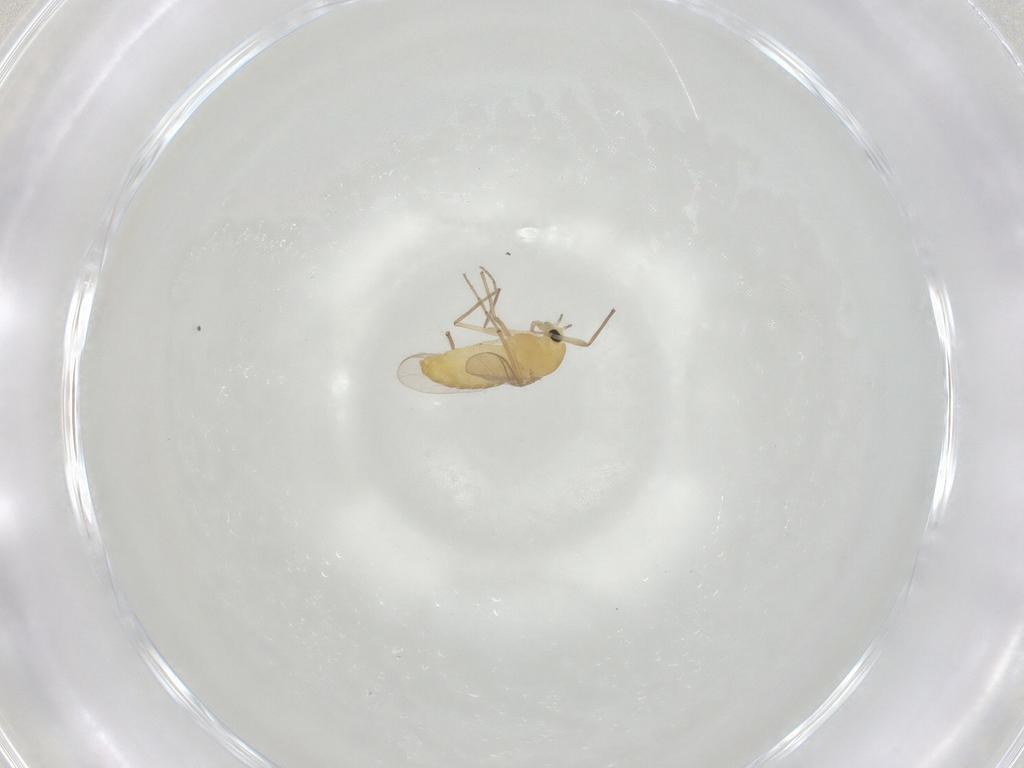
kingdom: Animalia
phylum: Arthropoda
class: Insecta
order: Diptera
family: Chironomidae
